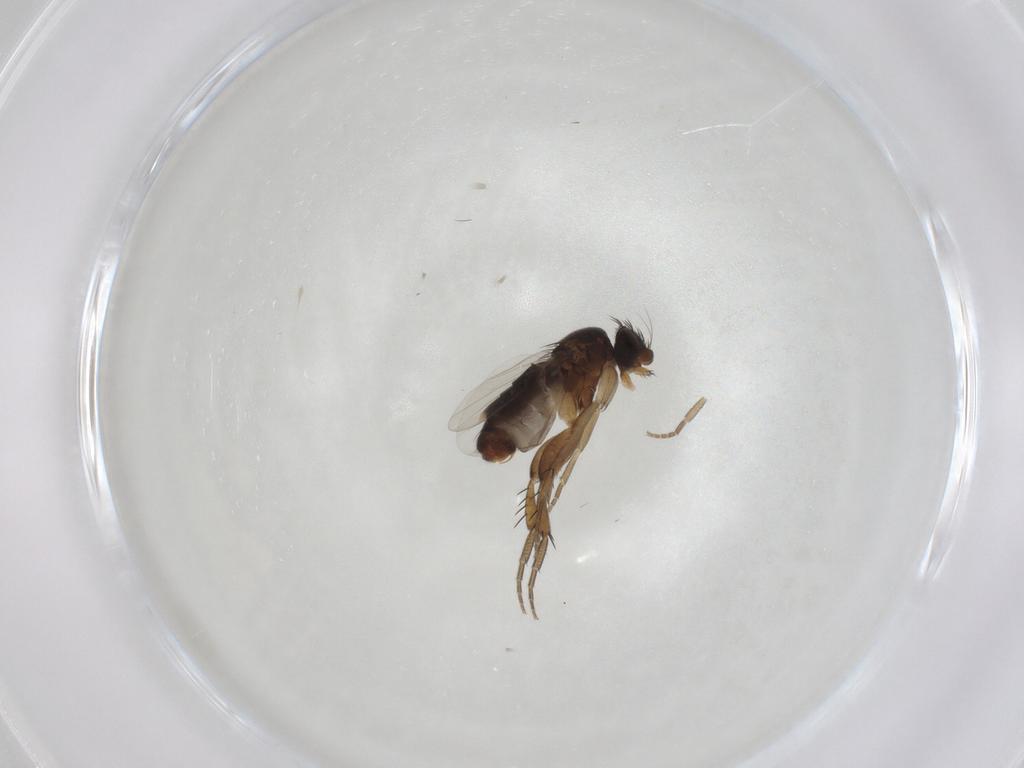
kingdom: Animalia
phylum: Arthropoda
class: Insecta
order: Diptera
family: Phoridae
